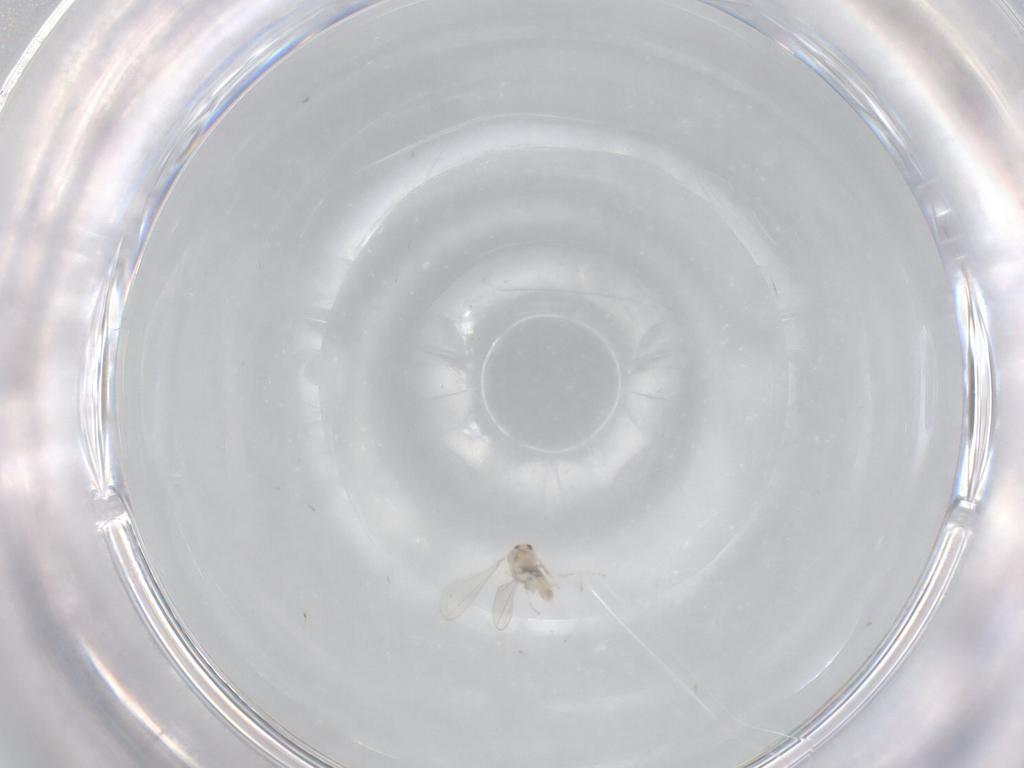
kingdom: Animalia
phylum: Arthropoda
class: Insecta
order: Diptera
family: Cecidomyiidae
